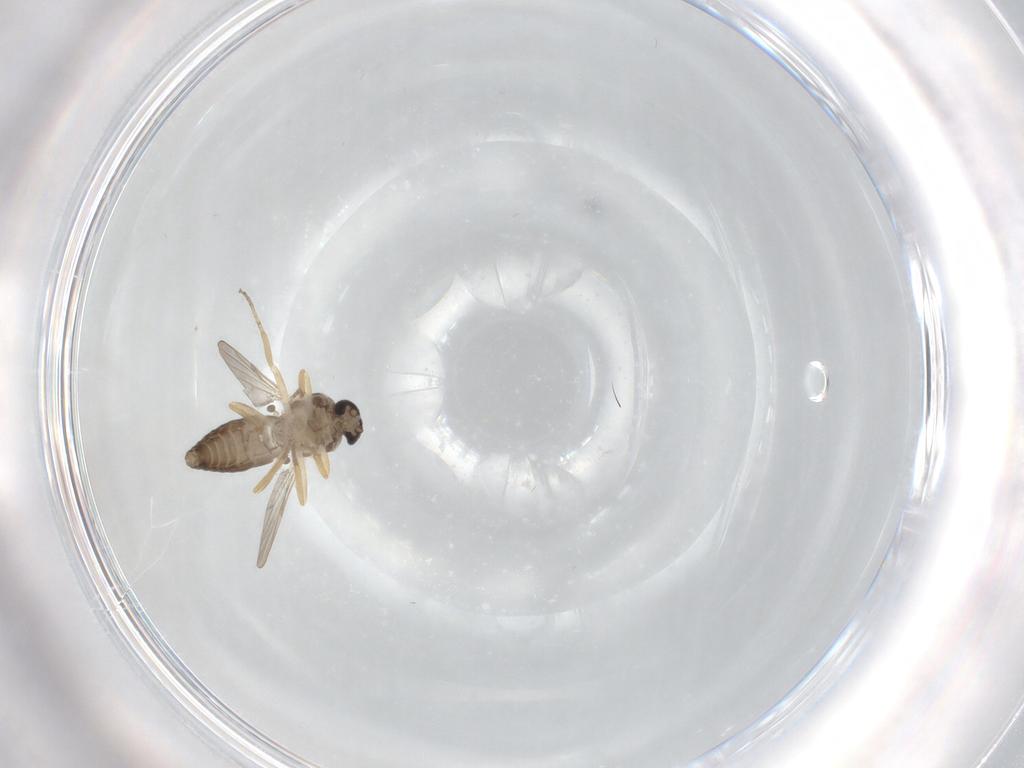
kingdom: Animalia
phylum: Arthropoda
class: Insecta
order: Diptera
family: Ceratopogonidae
